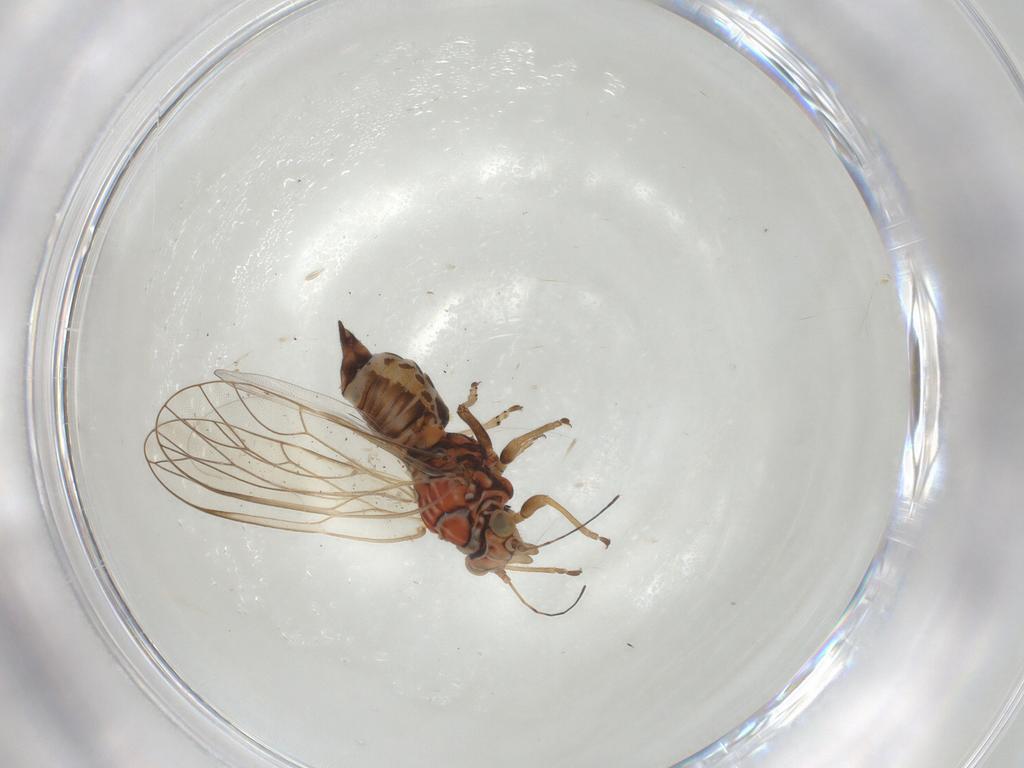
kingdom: Animalia
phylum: Arthropoda
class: Insecta
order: Hemiptera
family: Psyllidae
